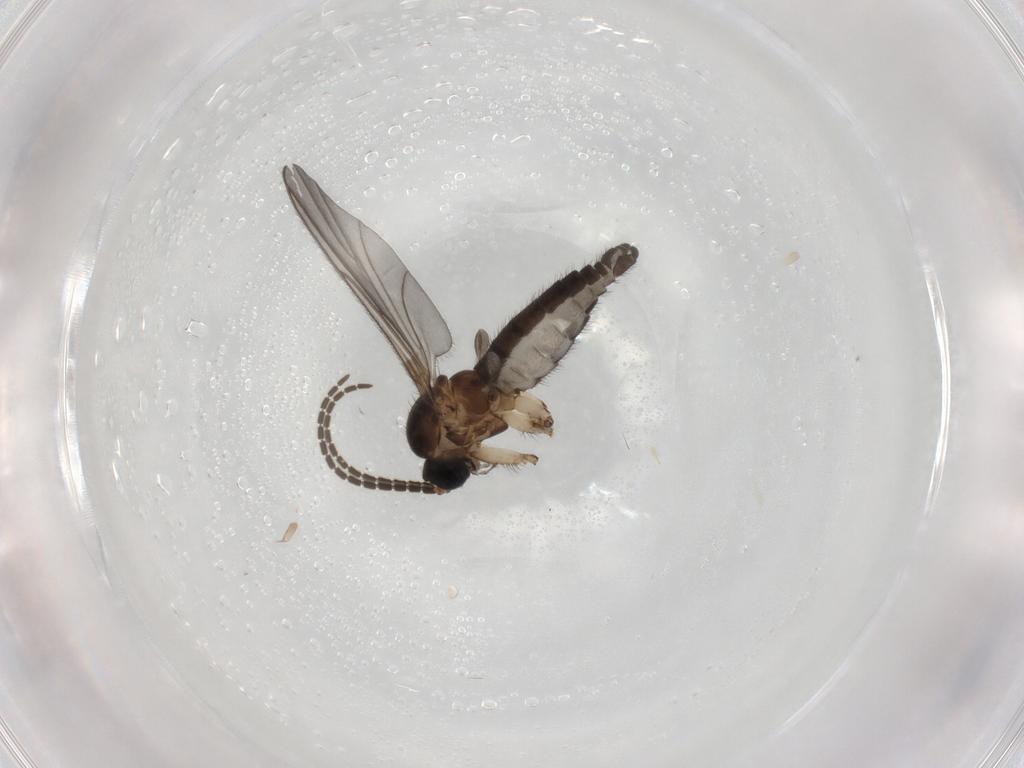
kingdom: Animalia
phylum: Arthropoda
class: Insecta
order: Diptera
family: Sciaridae
